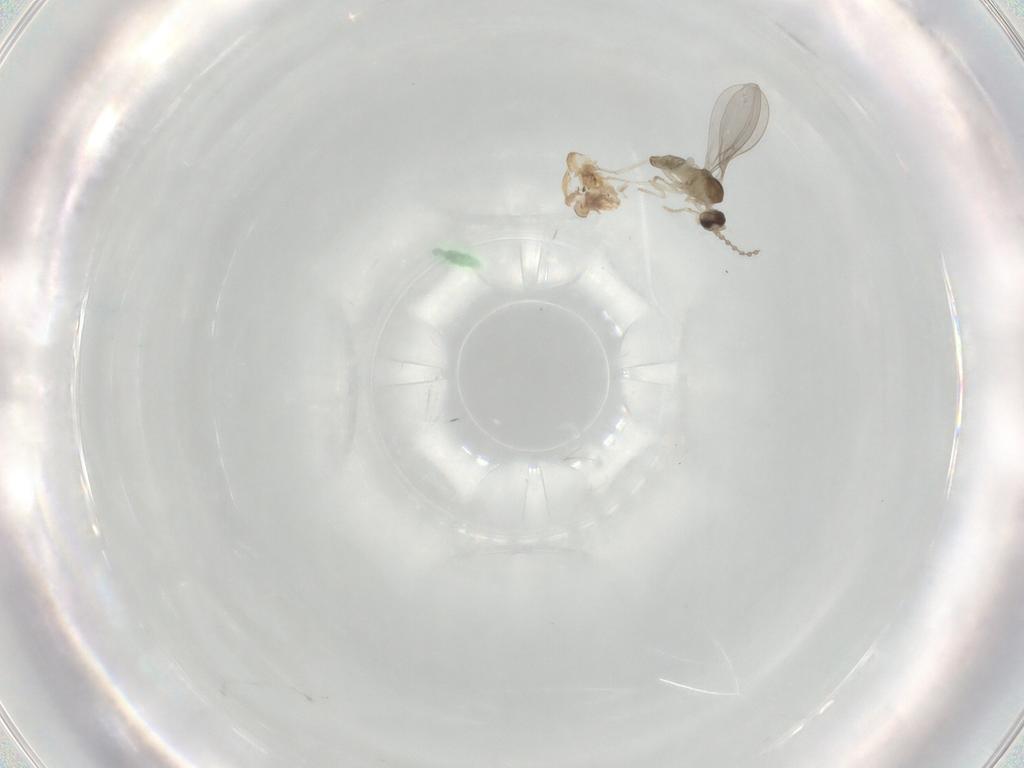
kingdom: Animalia
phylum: Arthropoda
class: Insecta
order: Diptera
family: Cecidomyiidae
